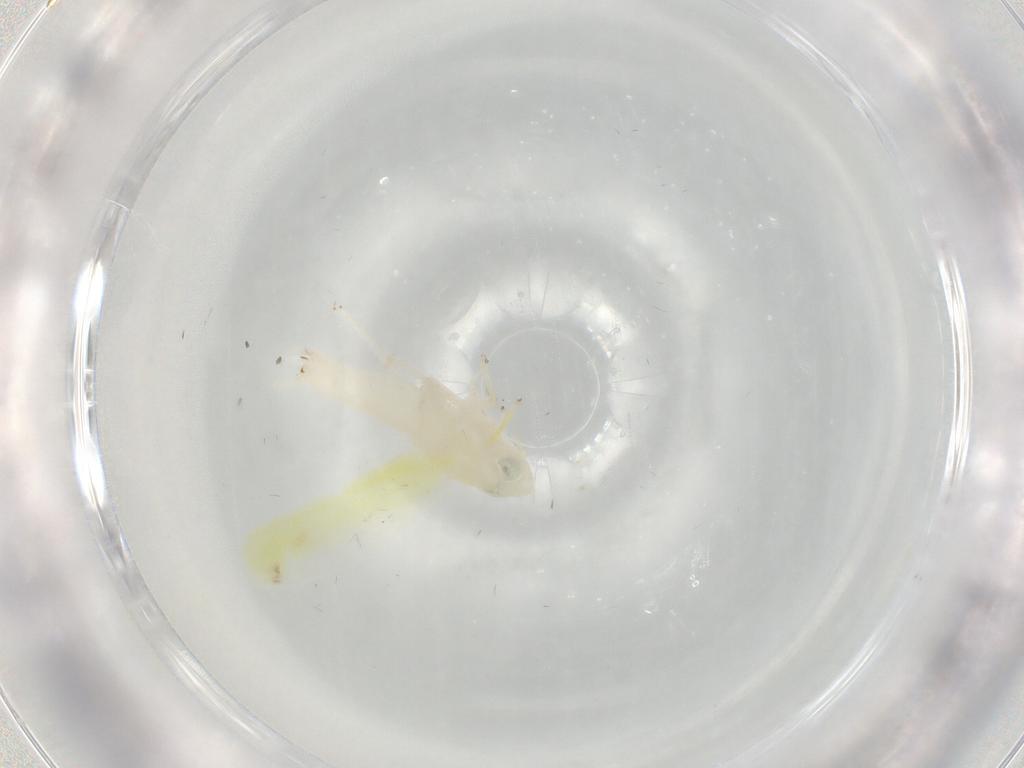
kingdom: Animalia
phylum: Arthropoda
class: Insecta
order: Hemiptera
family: Cicadellidae
